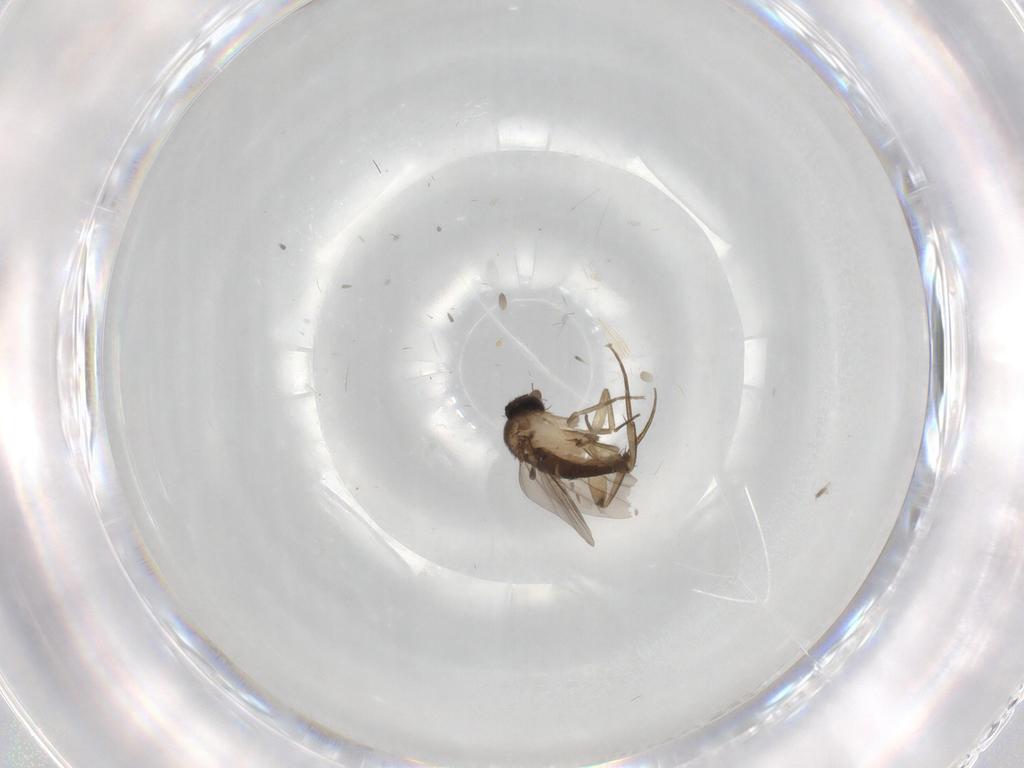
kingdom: Animalia
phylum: Arthropoda
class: Insecta
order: Diptera
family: Phoridae
